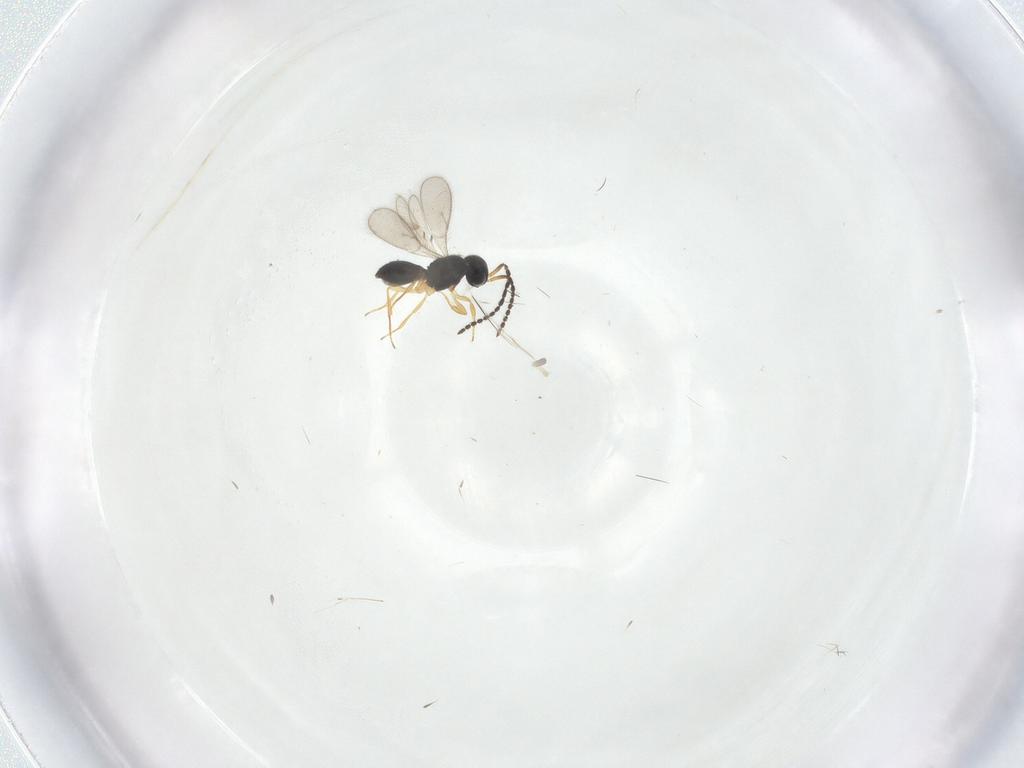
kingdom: Animalia
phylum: Arthropoda
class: Insecta
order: Hymenoptera
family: Scelionidae
